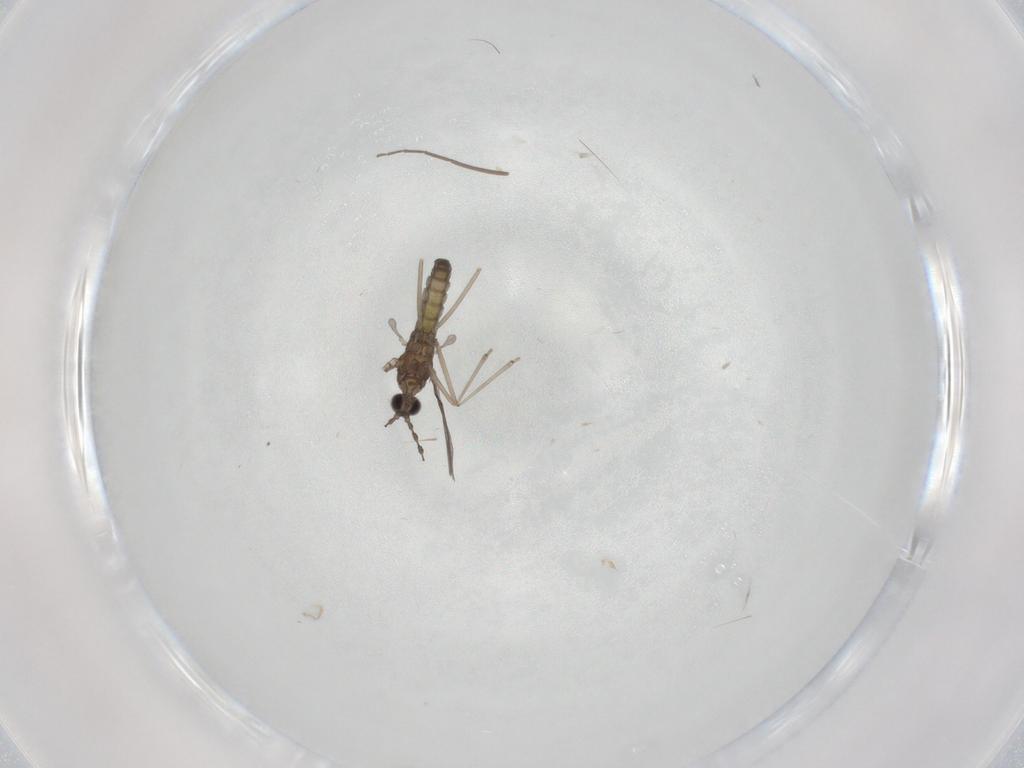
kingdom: Animalia
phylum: Arthropoda
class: Insecta
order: Diptera
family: Chironomidae
